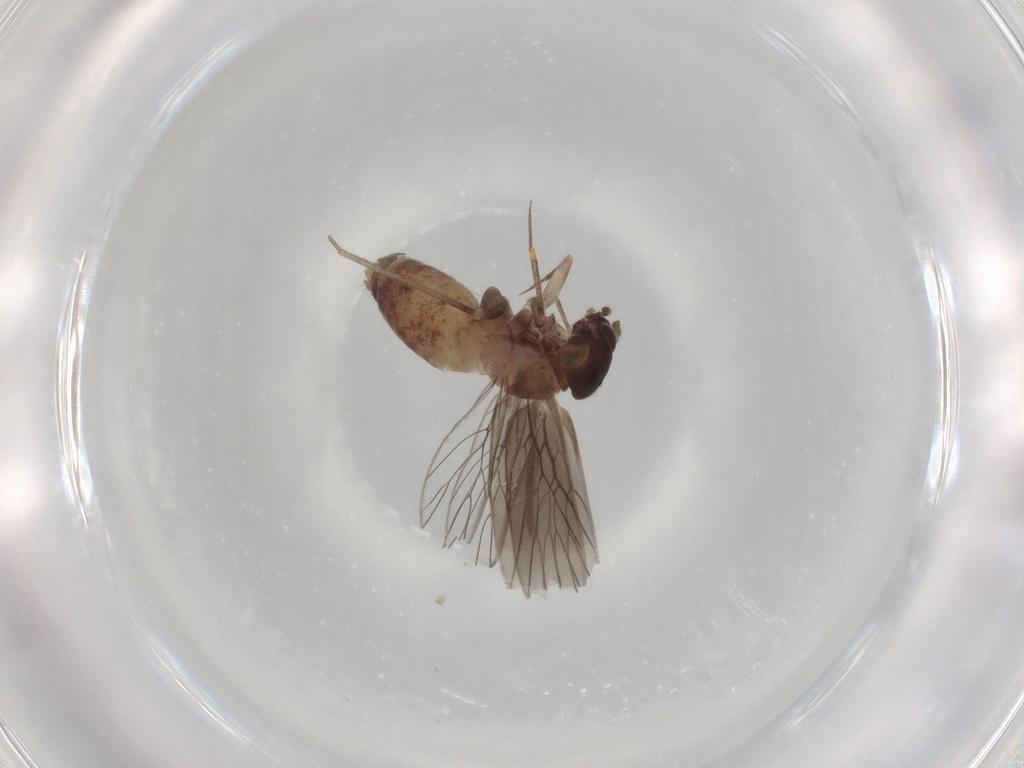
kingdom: Animalia
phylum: Arthropoda
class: Insecta
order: Psocodea
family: Lepidopsocidae
